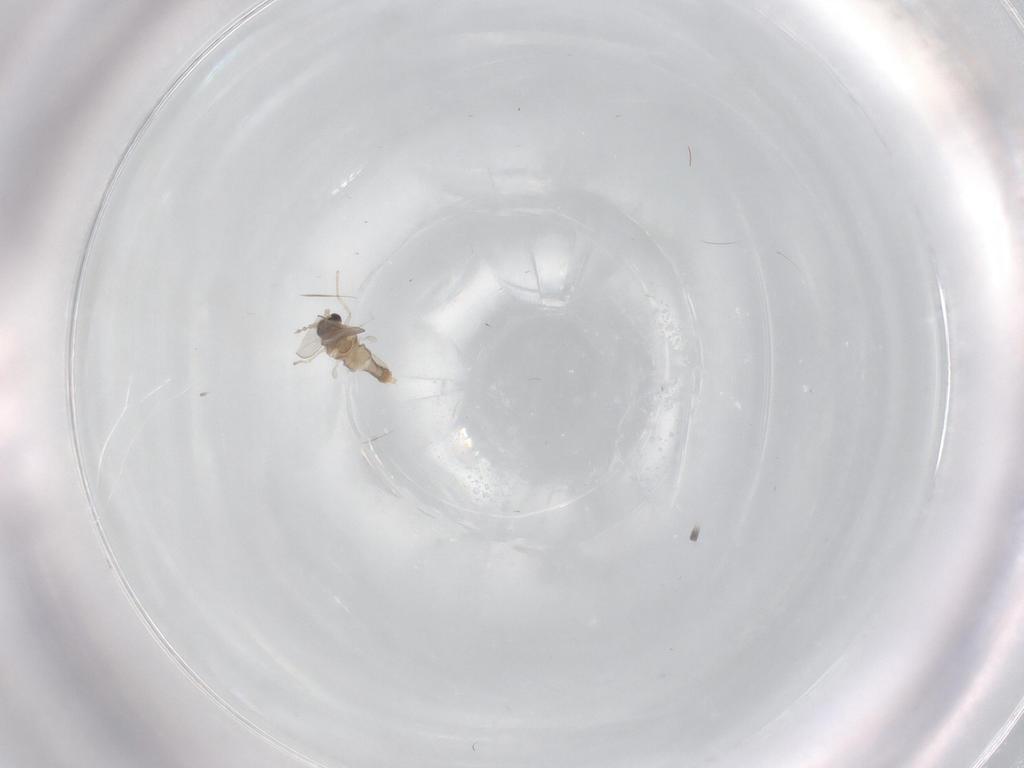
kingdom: Animalia
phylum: Arthropoda
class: Insecta
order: Diptera
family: Cecidomyiidae
